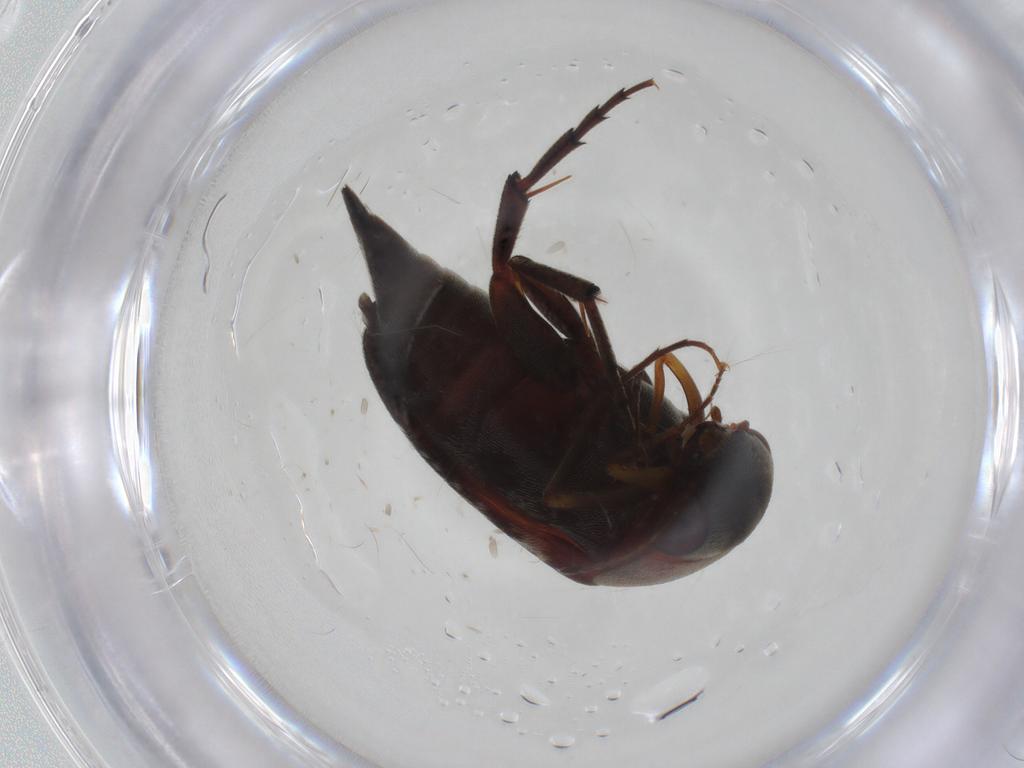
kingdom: Animalia
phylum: Arthropoda
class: Insecta
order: Coleoptera
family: Mordellidae
